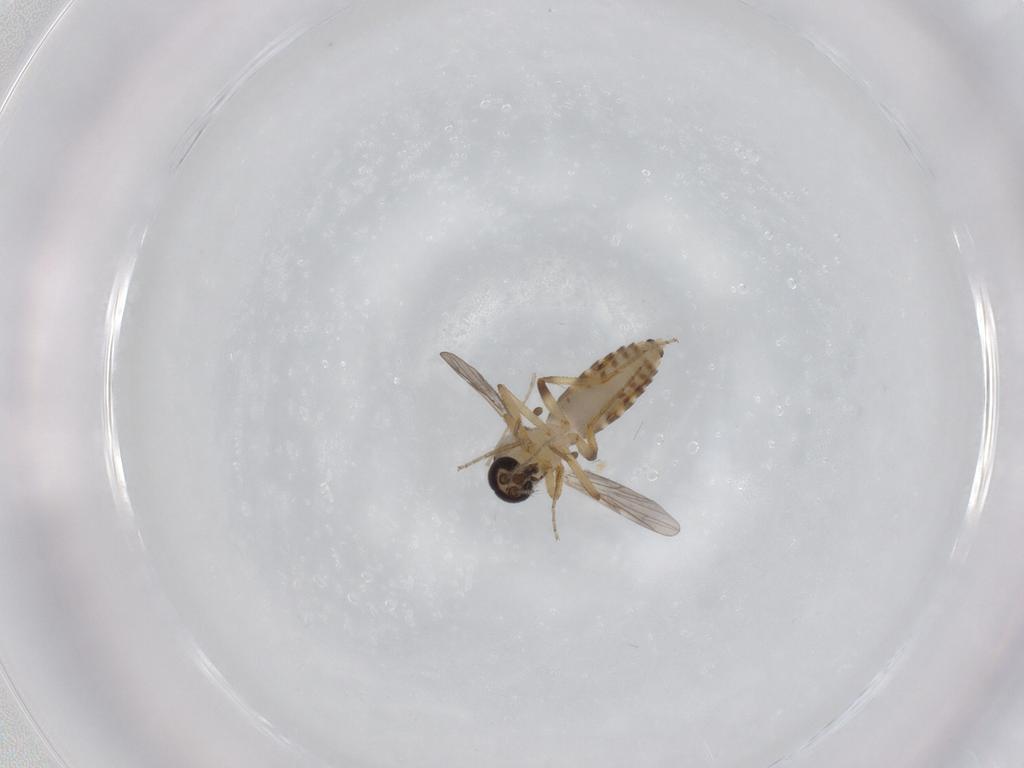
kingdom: Animalia
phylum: Arthropoda
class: Insecta
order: Diptera
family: Ceratopogonidae
